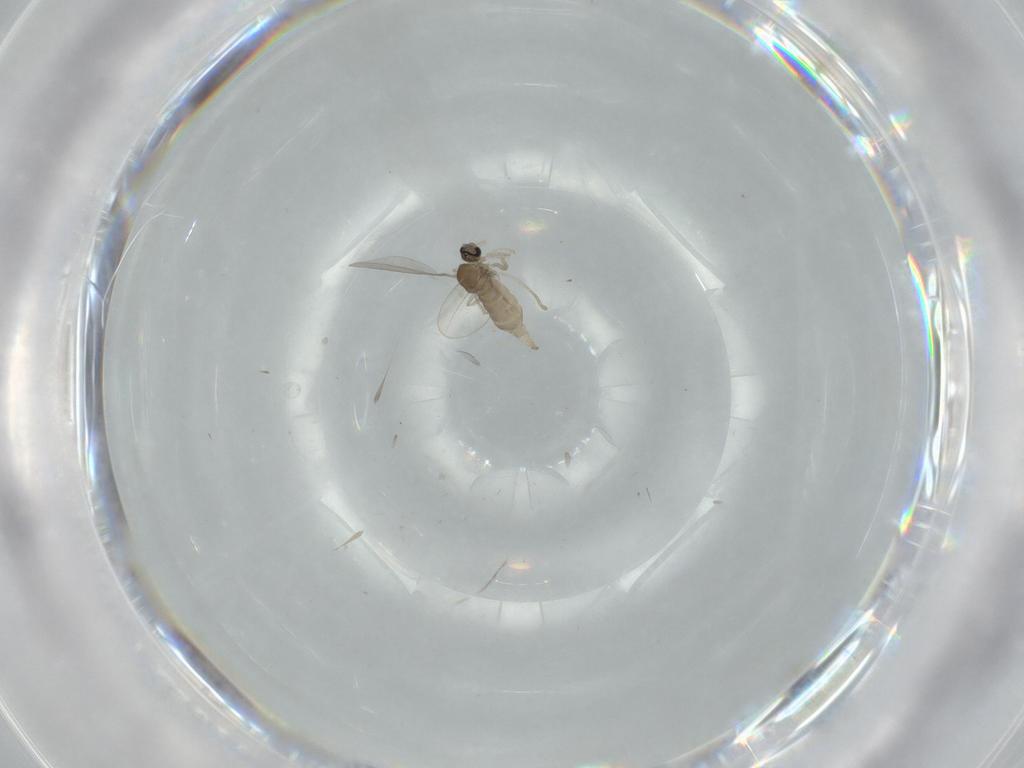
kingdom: Animalia
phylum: Arthropoda
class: Insecta
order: Diptera
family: Cecidomyiidae
